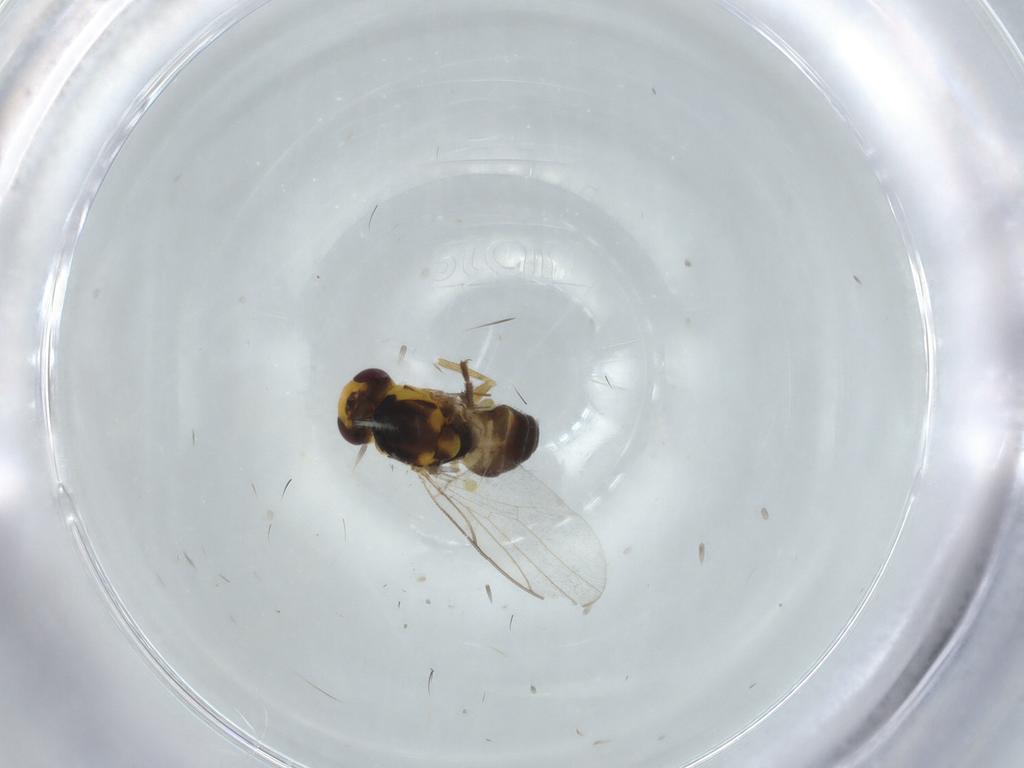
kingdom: Animalia
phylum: Arthropoda
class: Insecta
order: Diptera
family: Chloropidae
